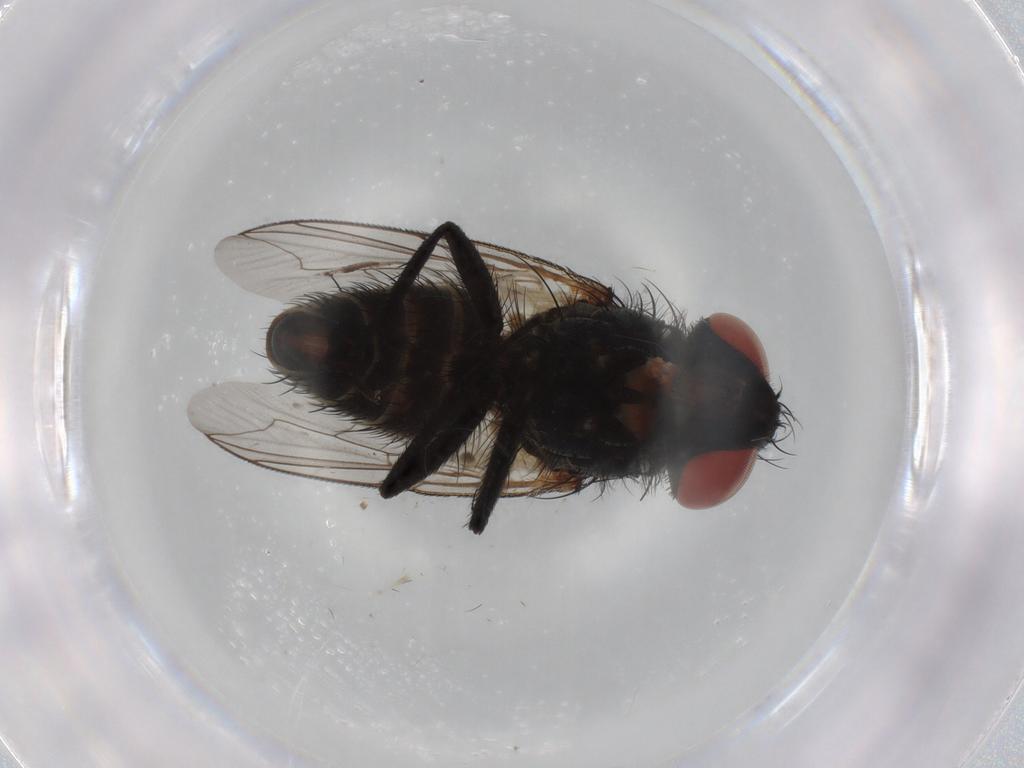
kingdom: Animalia
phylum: Arthropoda
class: Insecta
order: Diptera
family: Sarcophagidae
